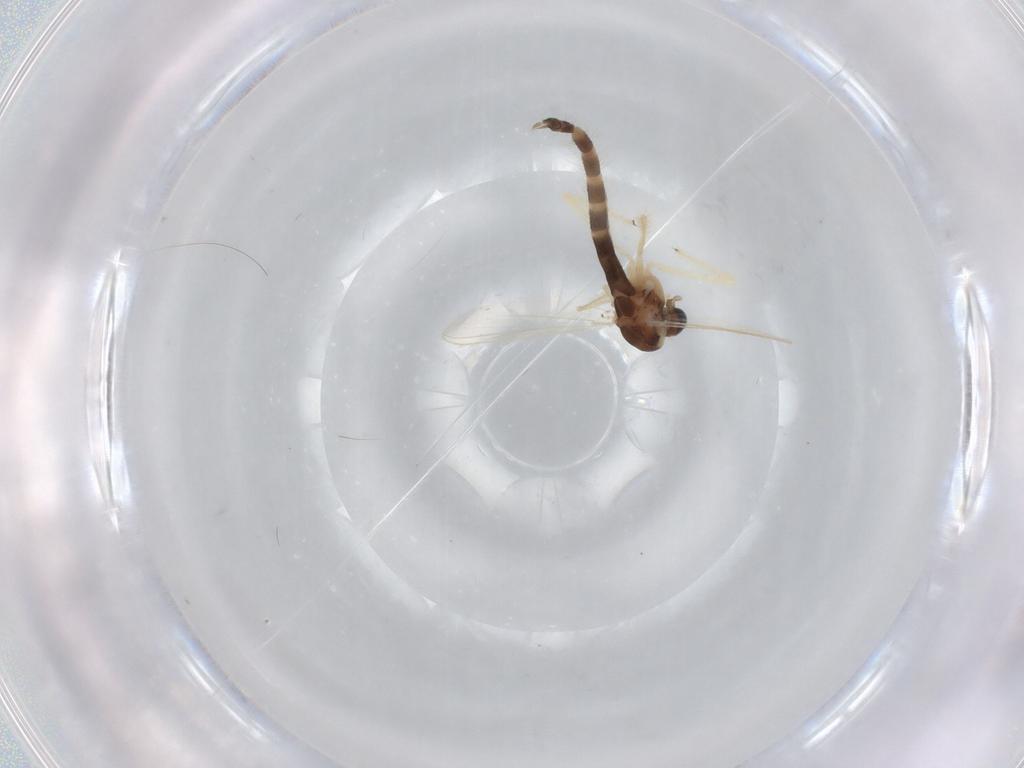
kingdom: Animalia
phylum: Arthropoda
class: Insecta
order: Diptera
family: Chironomidae
